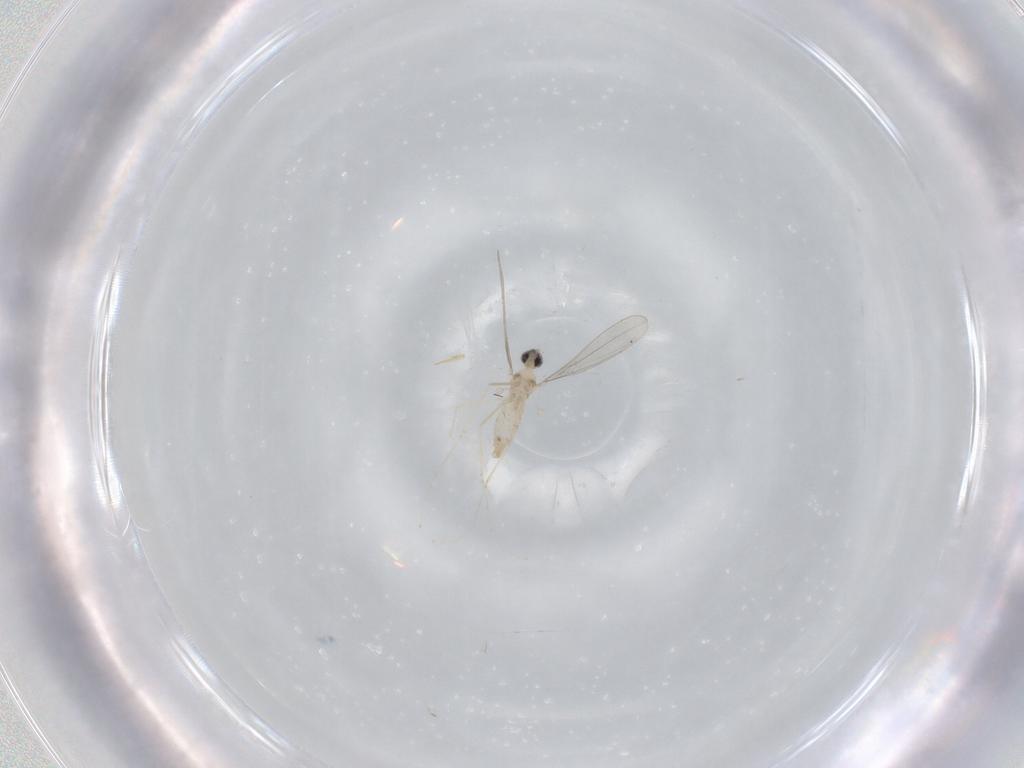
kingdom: Animalia
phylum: Arthropoda
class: Insecta
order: Diptera
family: Cecidomyiidae
